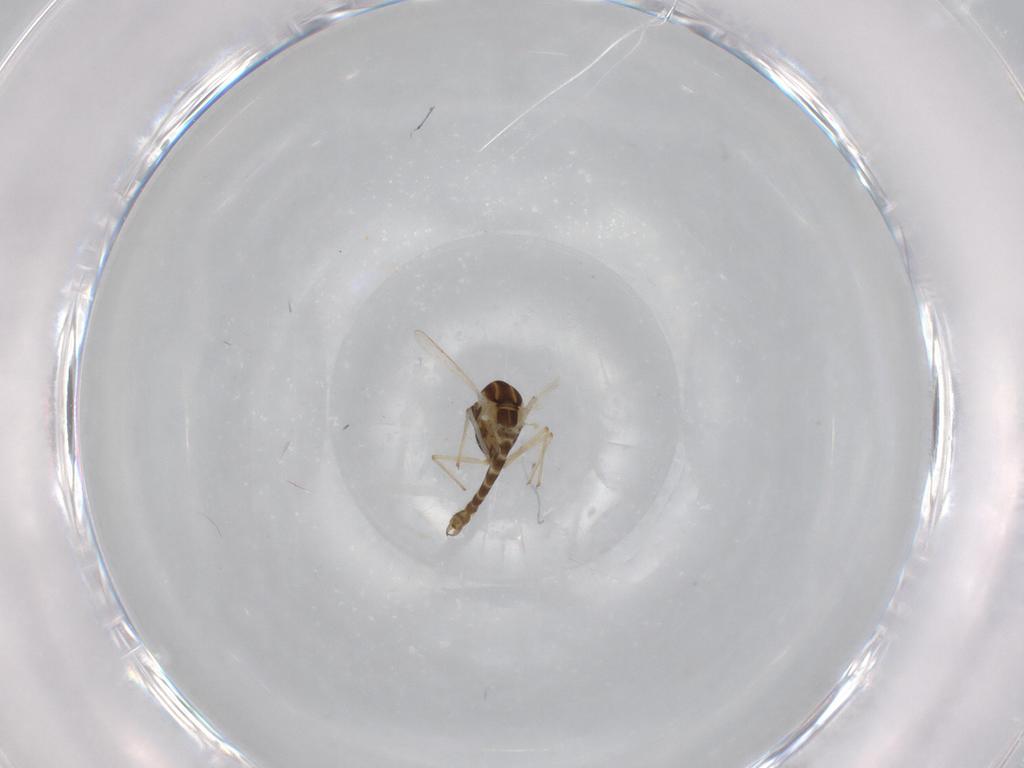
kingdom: Animalia
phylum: Arthropoda
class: Insecta
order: Diptera
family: Chironomidae
